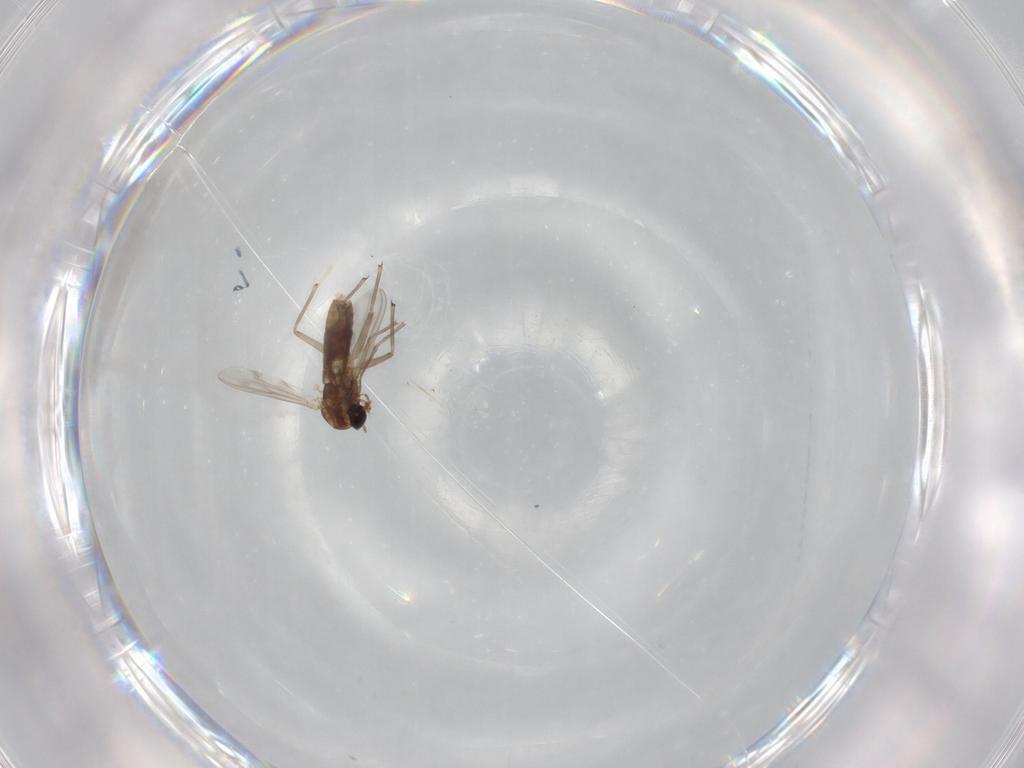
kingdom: Animalia
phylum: Arthropoda
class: Insecta
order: Diptera
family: Chironomidae
